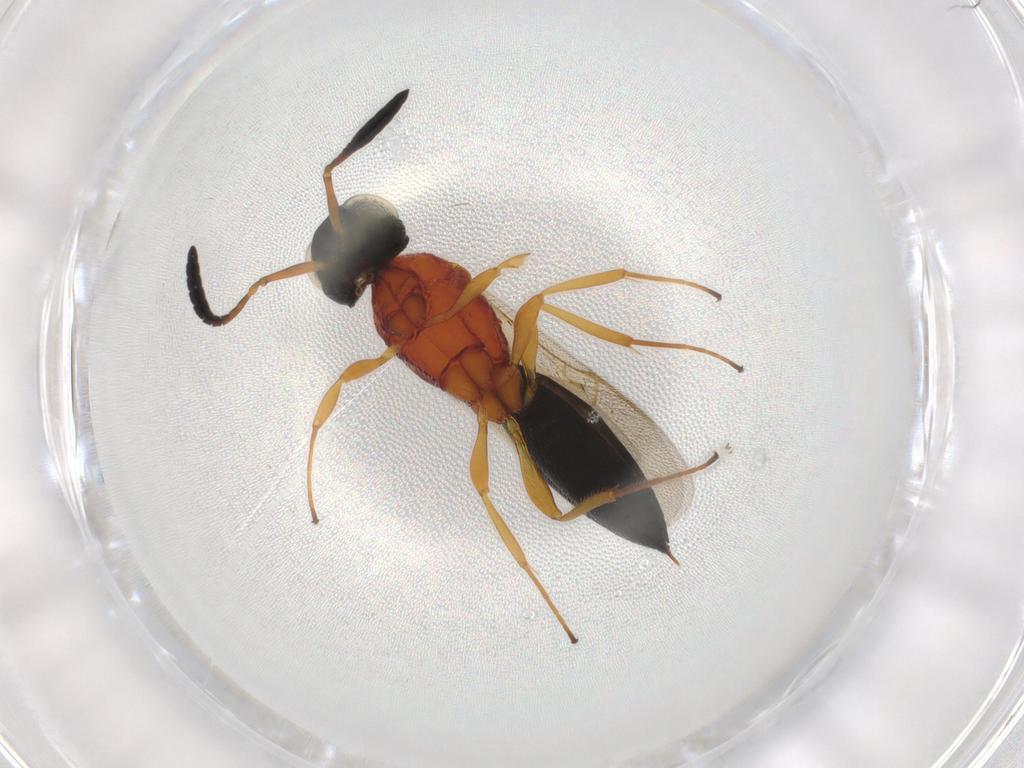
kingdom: Animalia
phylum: Arthropoda
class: Insecta
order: Hymenoptera
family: Scelionidae
